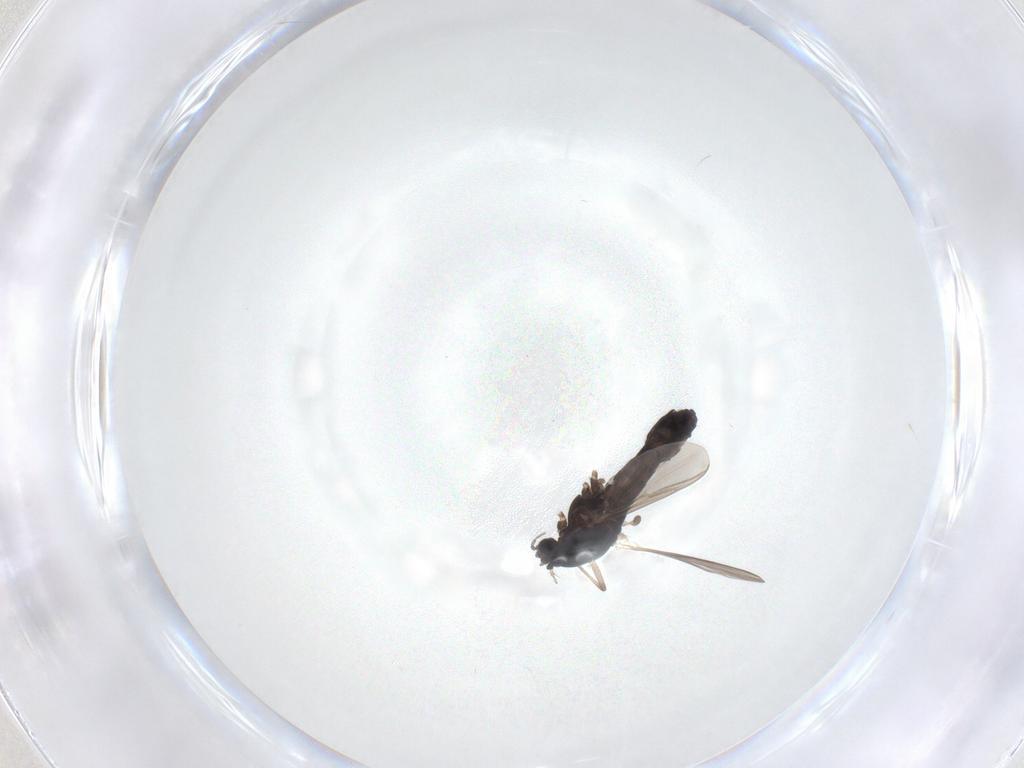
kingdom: Animalia
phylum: Arthropoda
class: Insecta
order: Diptera
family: Chironomidae
